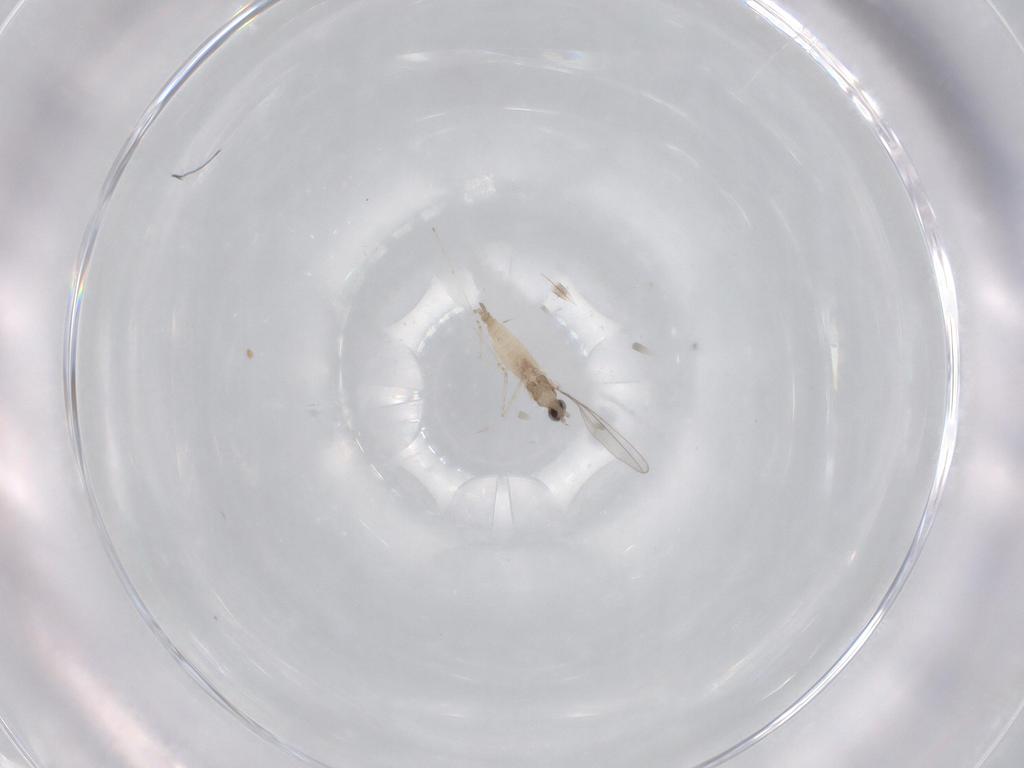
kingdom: Animalia
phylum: Arthropoda
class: Insecta
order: Diptera
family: Cecidomyiidae
